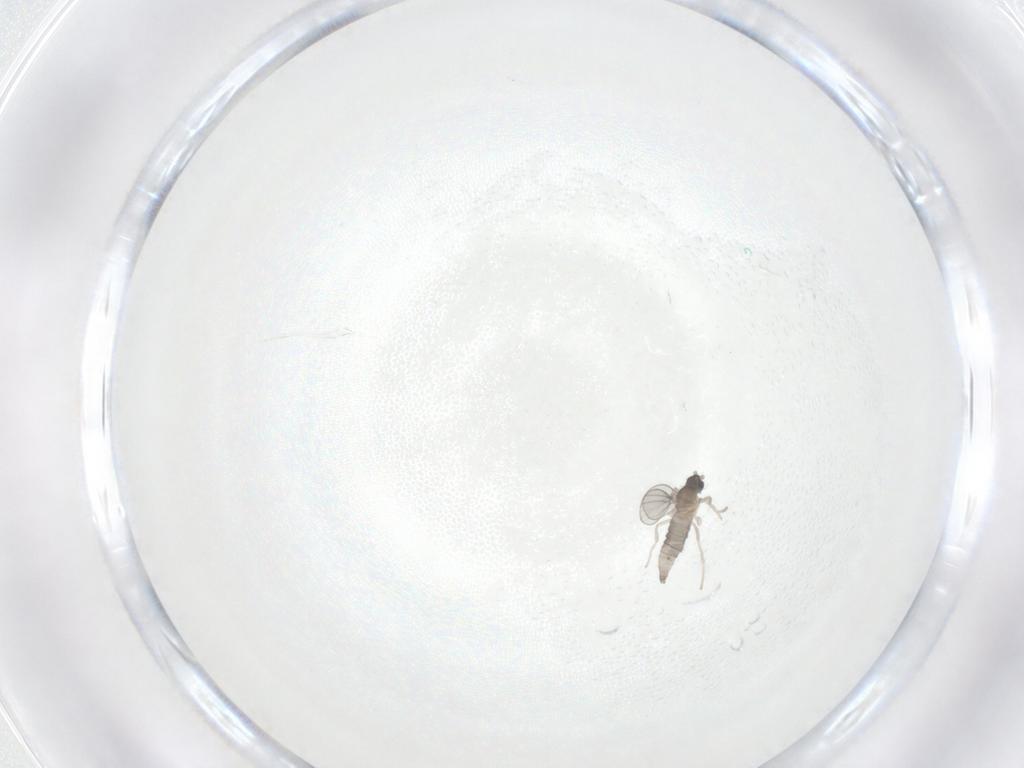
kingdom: Animalia
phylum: Arthropoda
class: Insecta
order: Diptera
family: Cecidomyiidae
